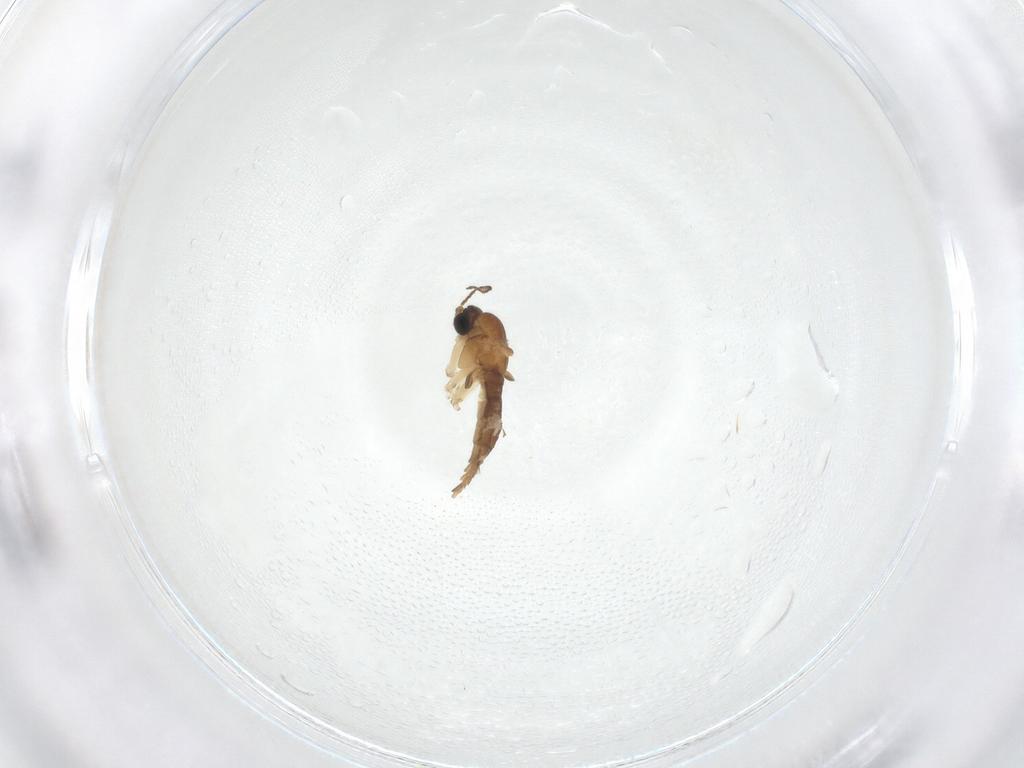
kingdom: Animalia
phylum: Arthropoda
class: Insecta
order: Diptera
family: Sciaridae
